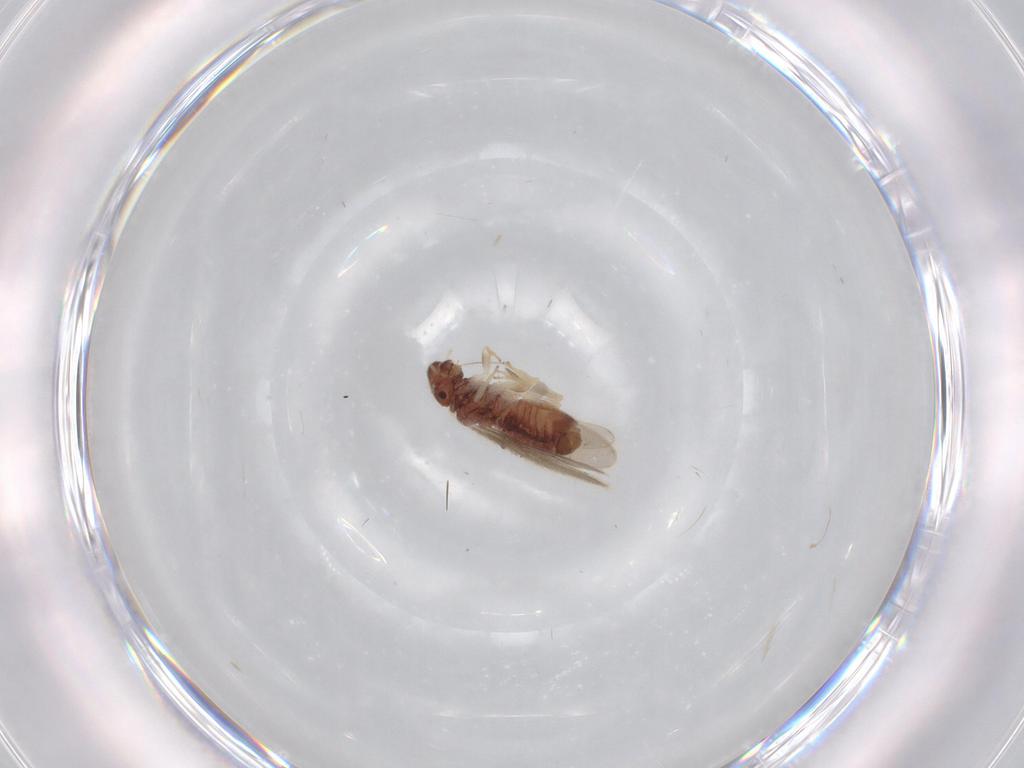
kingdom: Animalia
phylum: Arthropoda
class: Insecta
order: Psocodea
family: Archipsocidae
